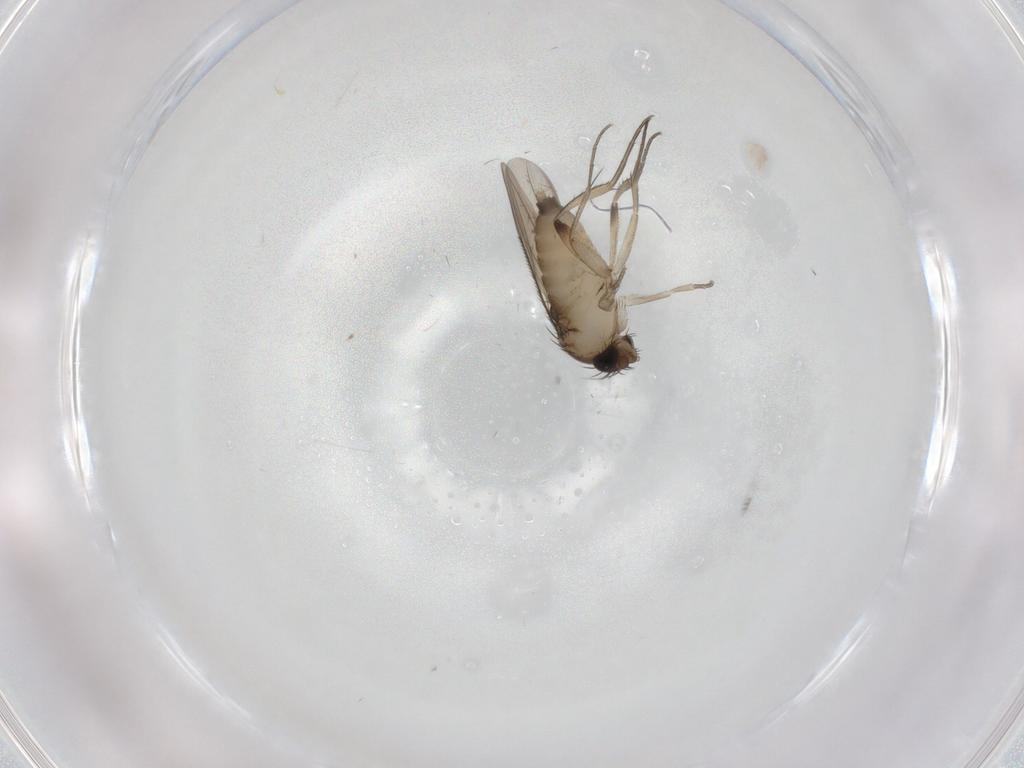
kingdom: Animalia
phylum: Arthropoda
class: Insecta
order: Diptera
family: Phoridae
